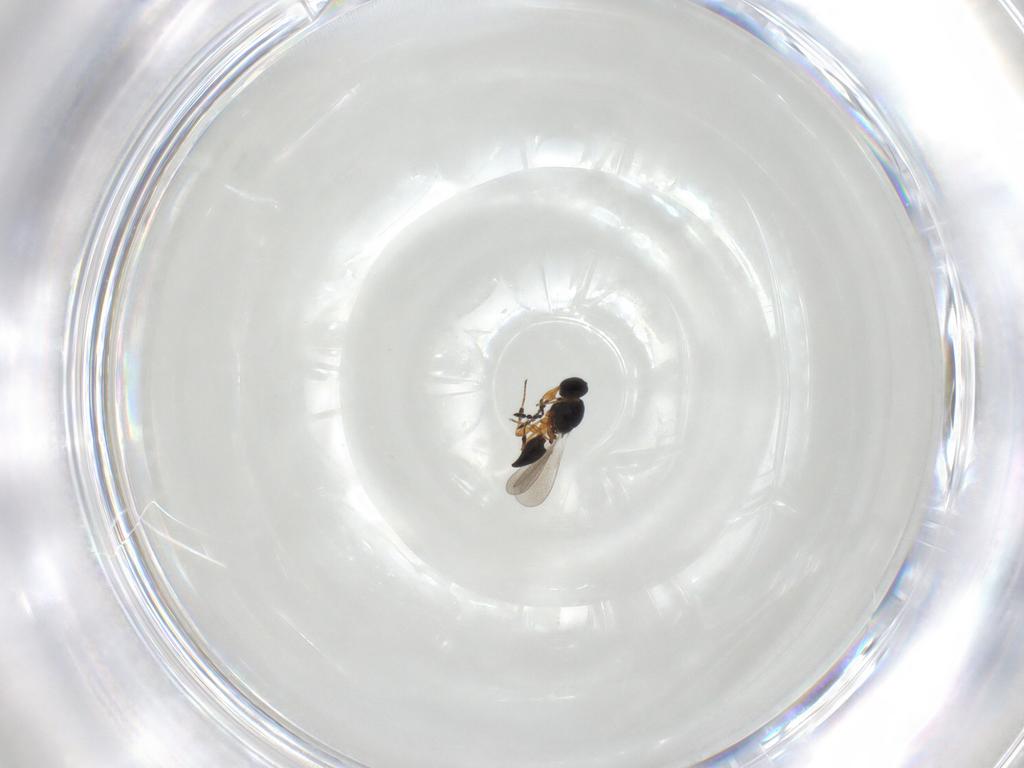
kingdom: Animalia
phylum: Arthropoda
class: Insecta
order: Hymenoptera
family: Platygastridae
